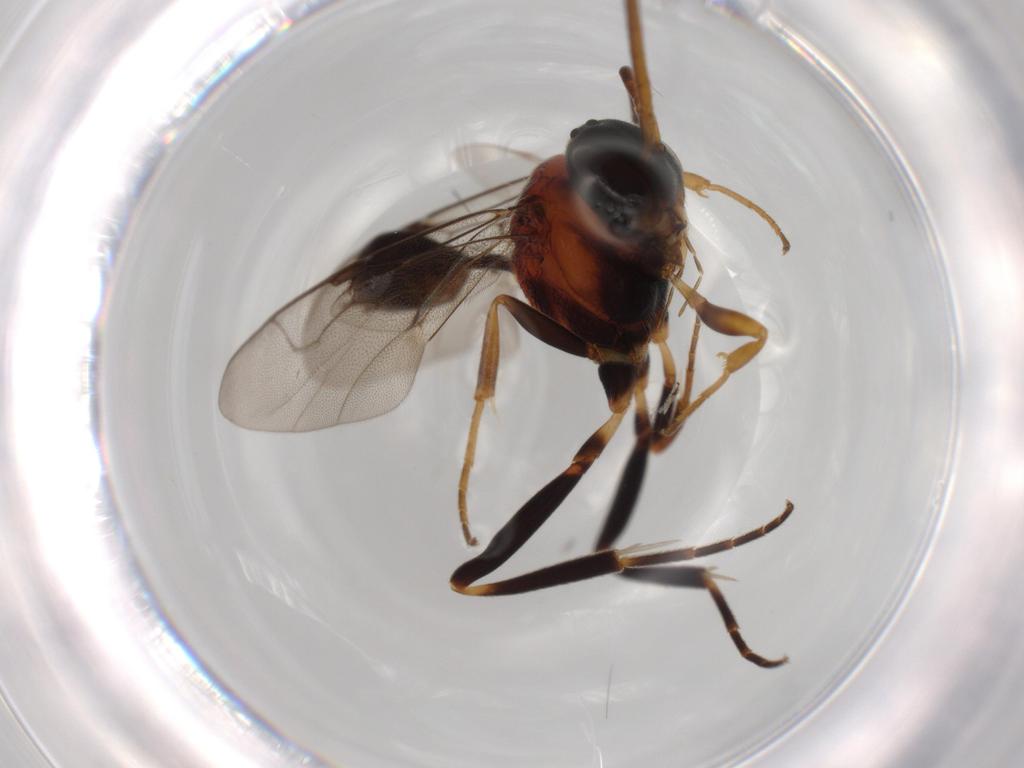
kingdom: Animalia
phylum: Arthropoda
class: Insecta
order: Hymenoptera
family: Evaniidae
